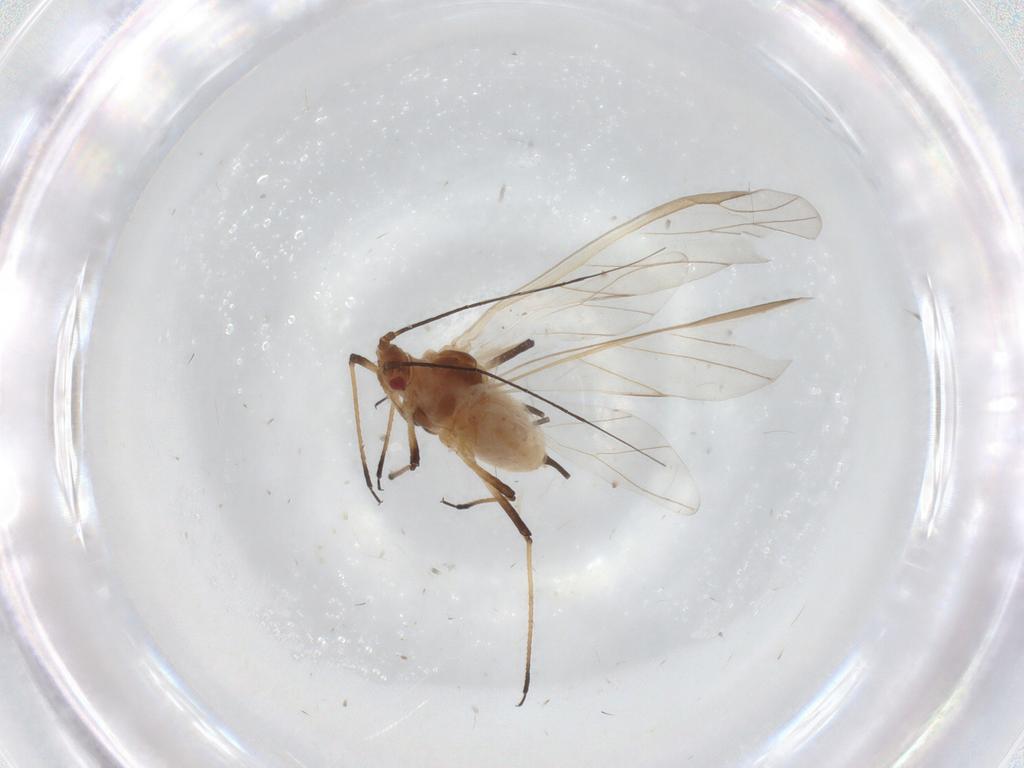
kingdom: Animalia
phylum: Arthropoda
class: Insecta
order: Hemiptera
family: Aphididae
